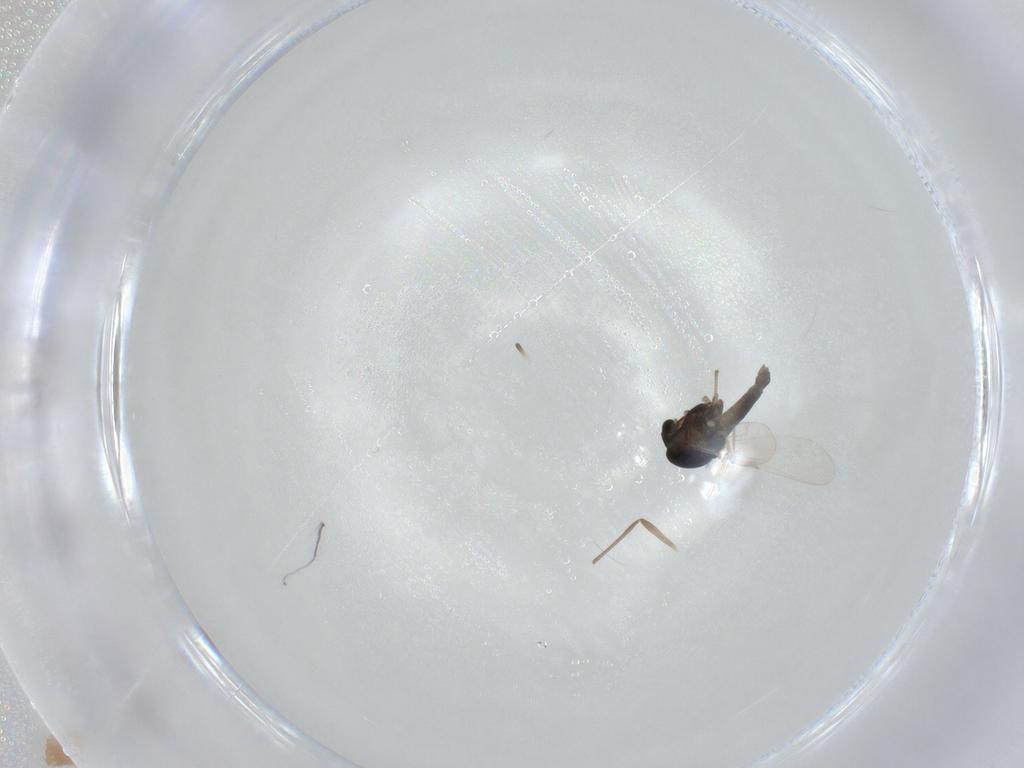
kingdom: Animalia
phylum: Arthropoda
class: Insecta
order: Diptera
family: Chironomidae
